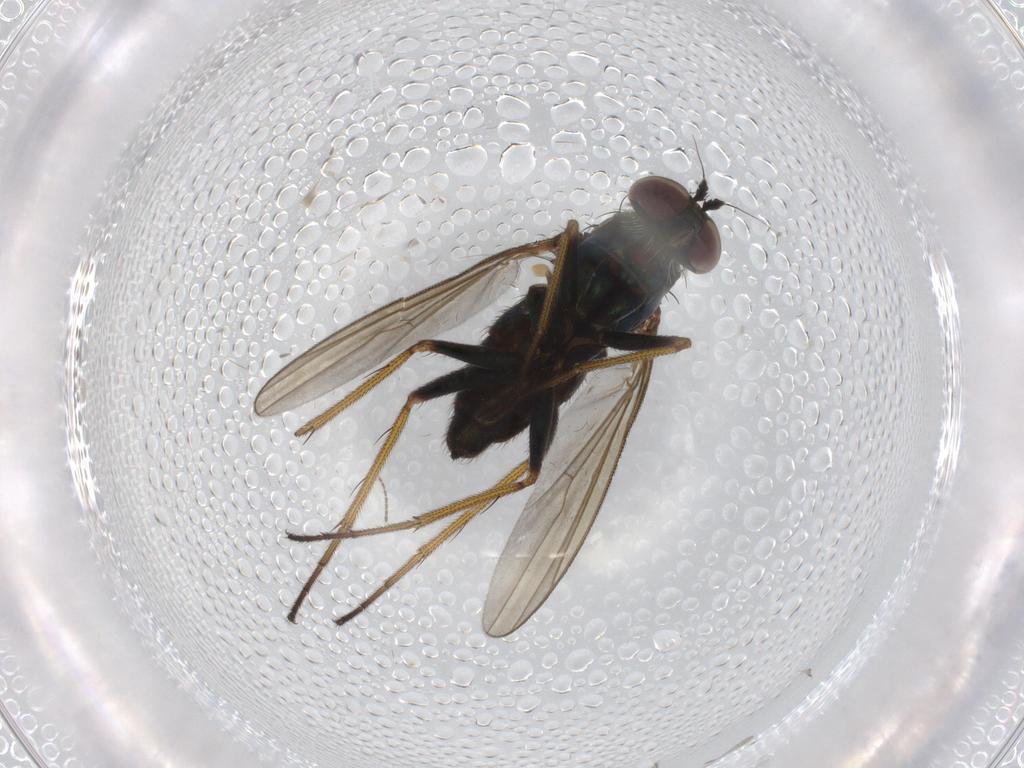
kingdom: Animalia
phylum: Arthropoda
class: Insecta
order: Diptera
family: Dolichopodidae
